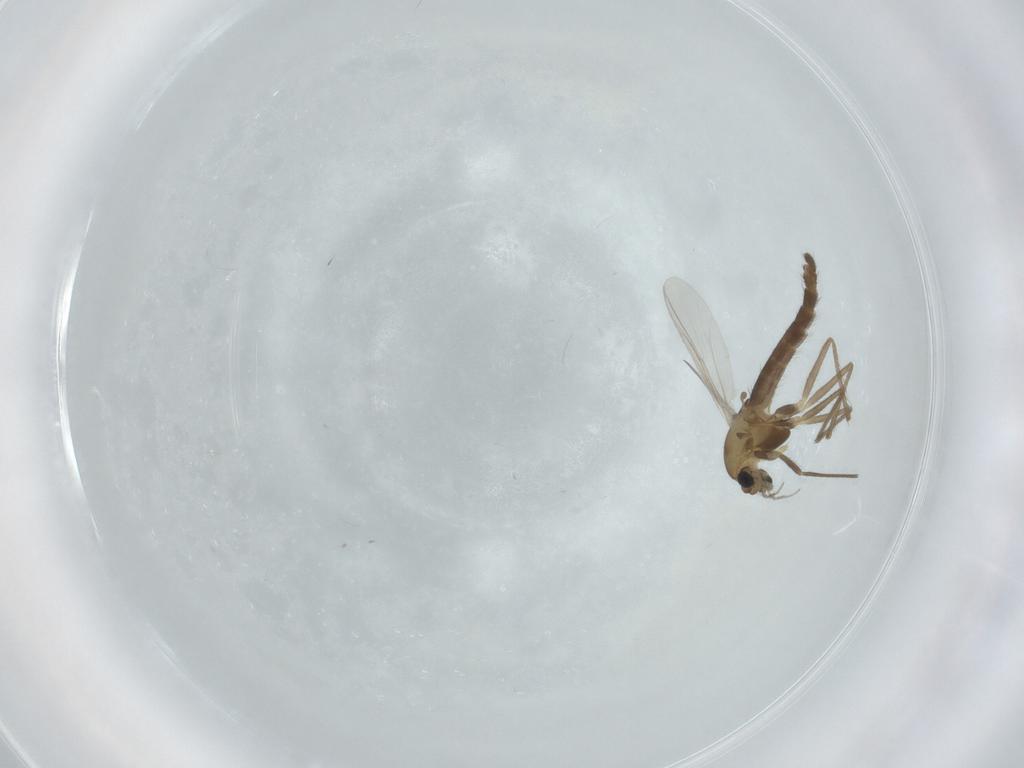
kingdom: Animalia
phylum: Arthropoda
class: Insecta
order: Diptera
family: Chironomidae
